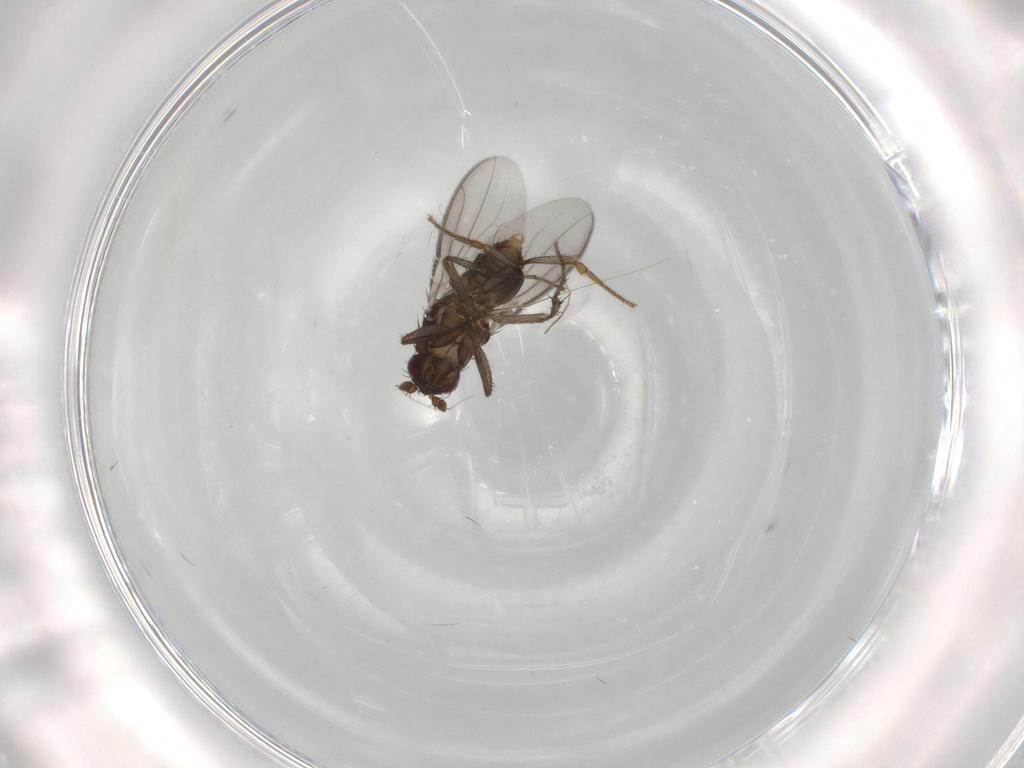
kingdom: Animalia
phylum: Arthropoda
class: Insecta
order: Diptera
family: Sphaeroceridae
